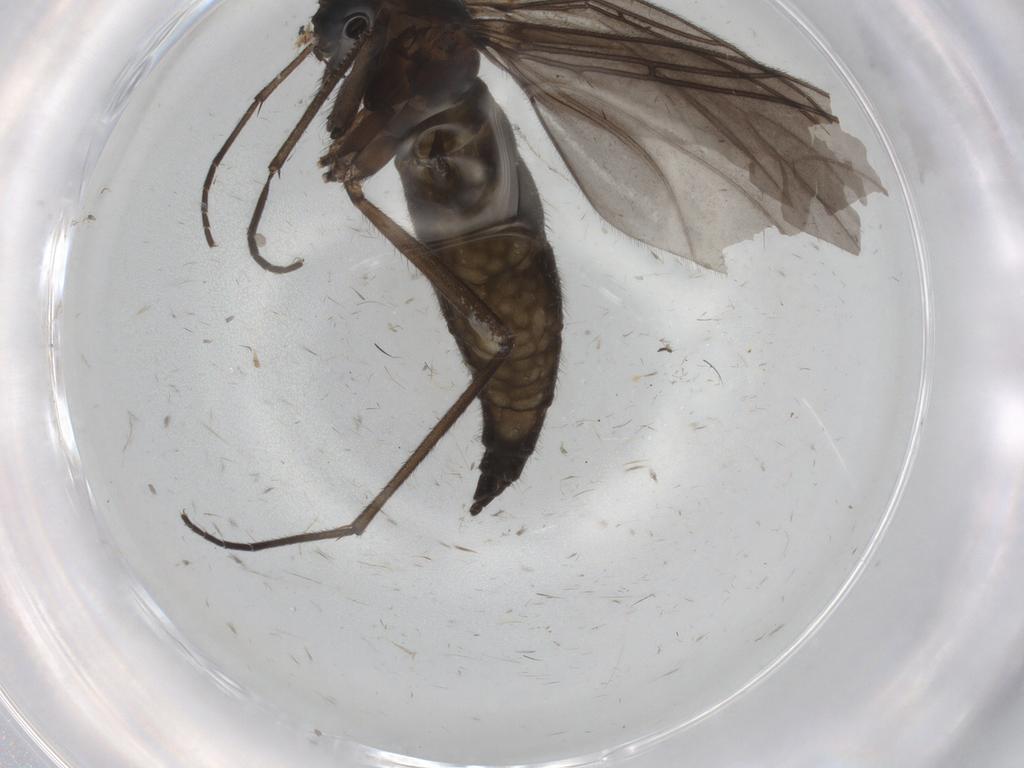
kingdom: Animalia
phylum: Arthropoda
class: Insecta
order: Diptera
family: Sciaridae
